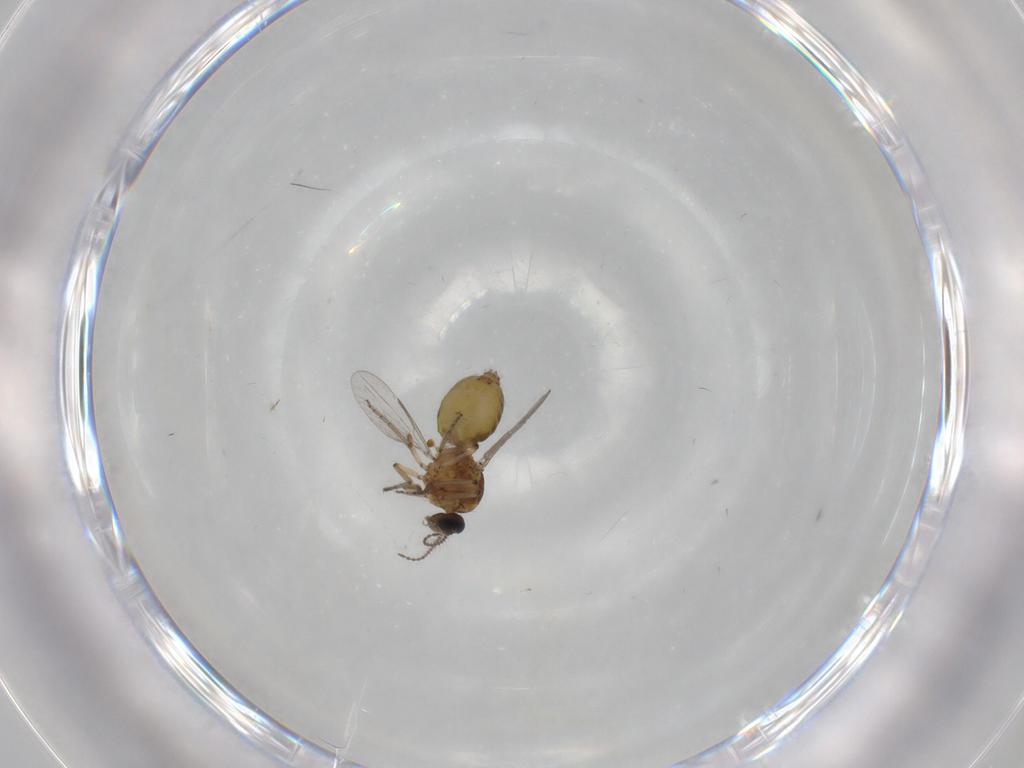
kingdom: Animalia
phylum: Arthropoda
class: Insecta
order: Diptera
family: Ceratopogonidae
